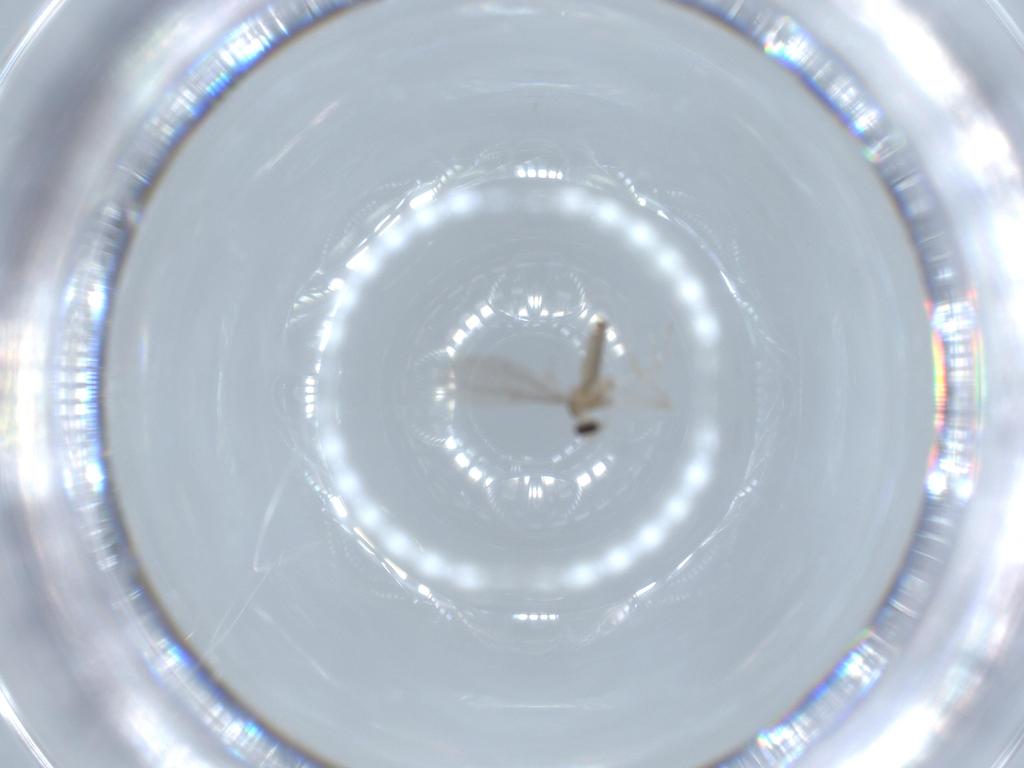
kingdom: Animalia
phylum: Arthropoda
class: Insecta
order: Diptera
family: Cecidomyiidae
